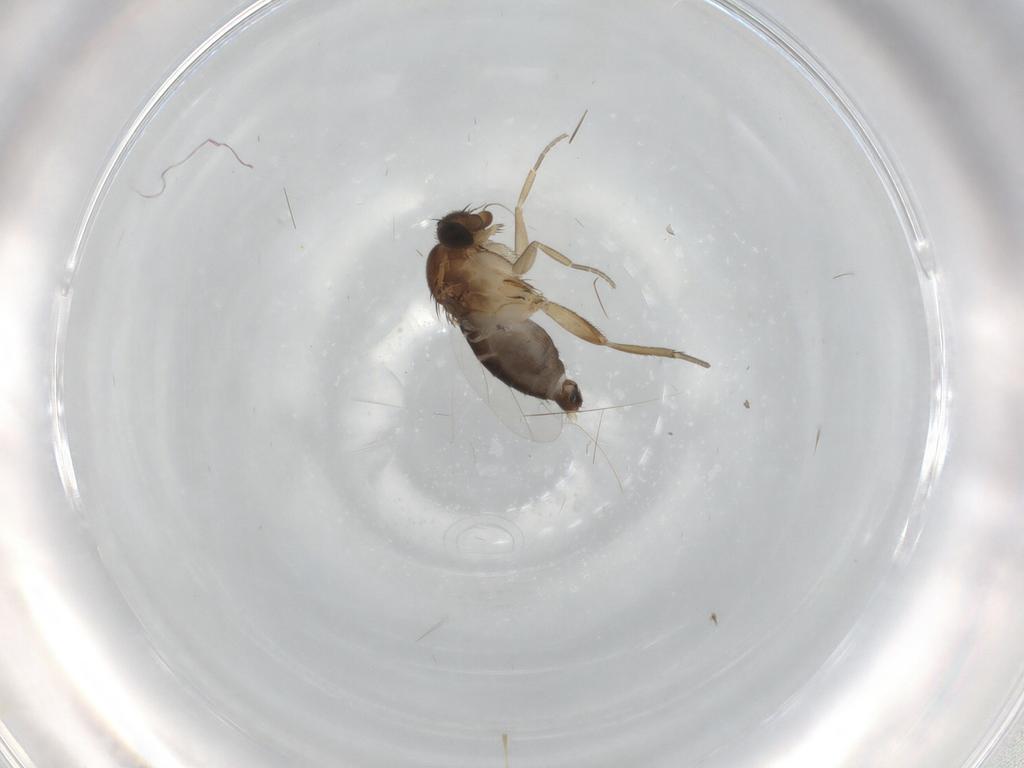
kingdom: Animalia
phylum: Arthropoda
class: Insecta
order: Diptera
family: Phoridae
